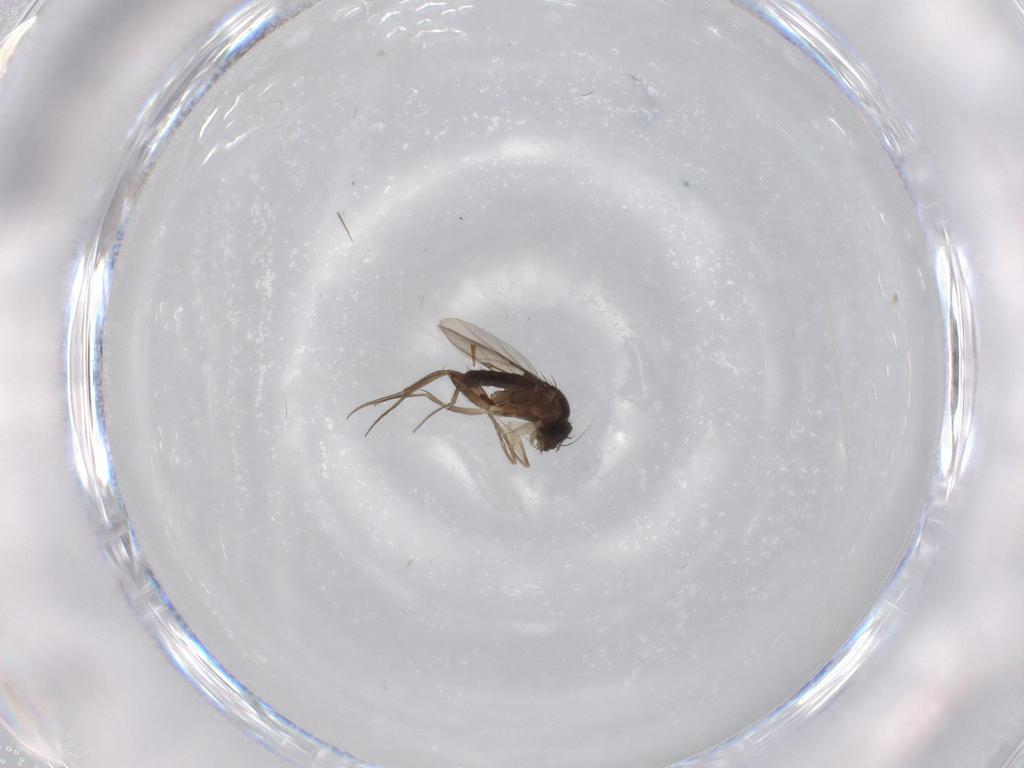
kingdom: Animalia
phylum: Arthropoda
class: Insecta
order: Diptera
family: Phoridae
